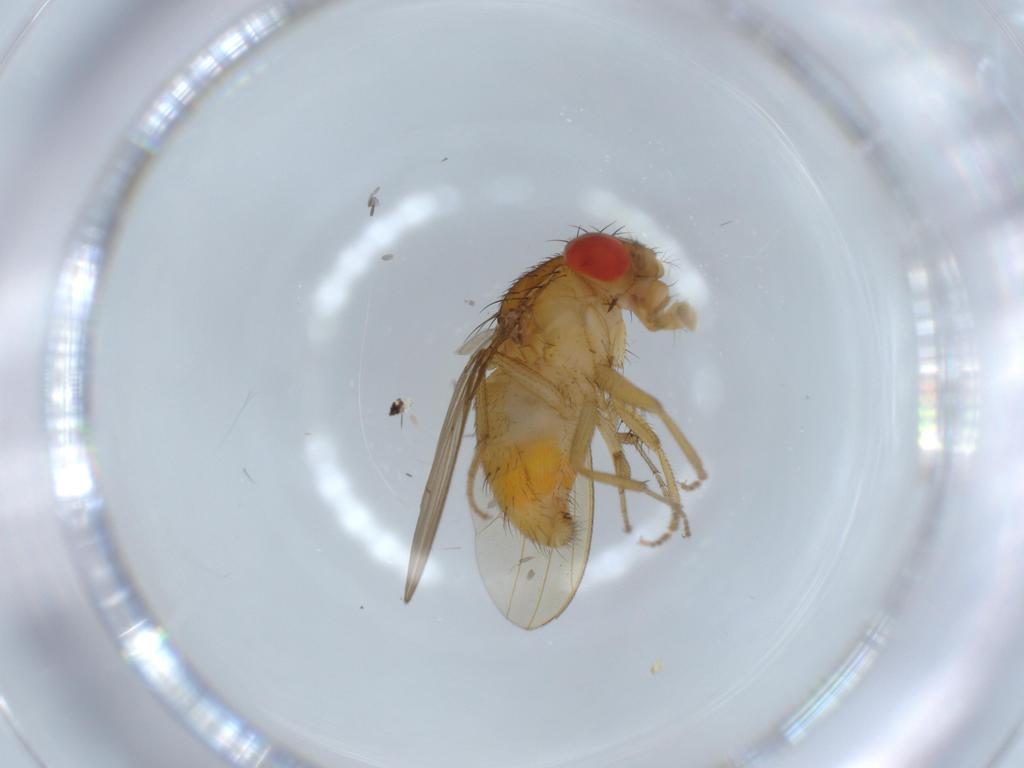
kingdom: Animalia
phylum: Arthropoda
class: Insecta
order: Diptera
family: Drosophilidae
